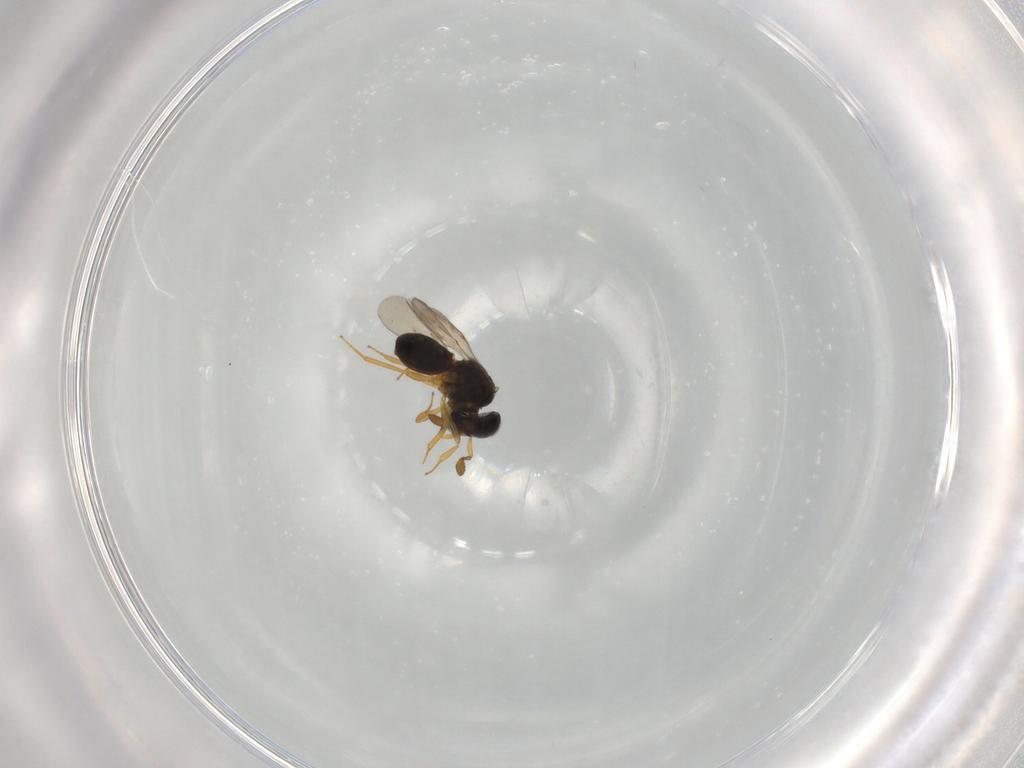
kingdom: Animalia
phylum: Arthropoda
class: Insecta
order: Hymenoptera
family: Scelionidae
